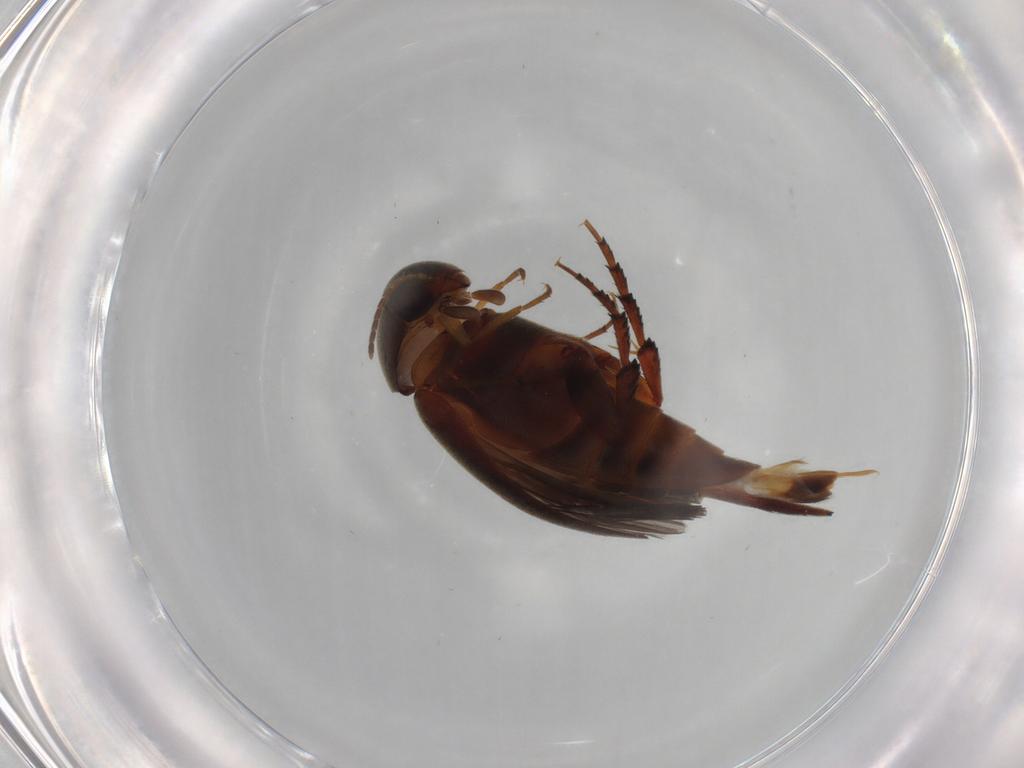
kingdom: Animalia
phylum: Arthropoda
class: Insecta
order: Coleoptera
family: Mordellidae
